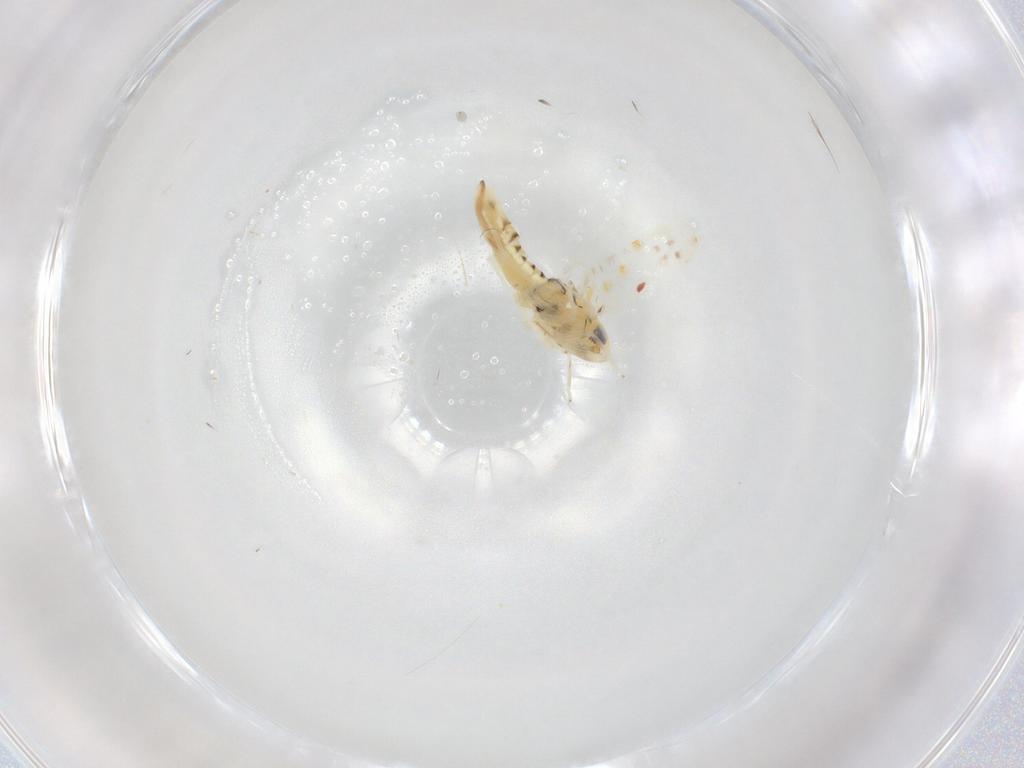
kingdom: Animalia
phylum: Arthropoda
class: Insecta
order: Hemiptera
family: Cicadellidae
